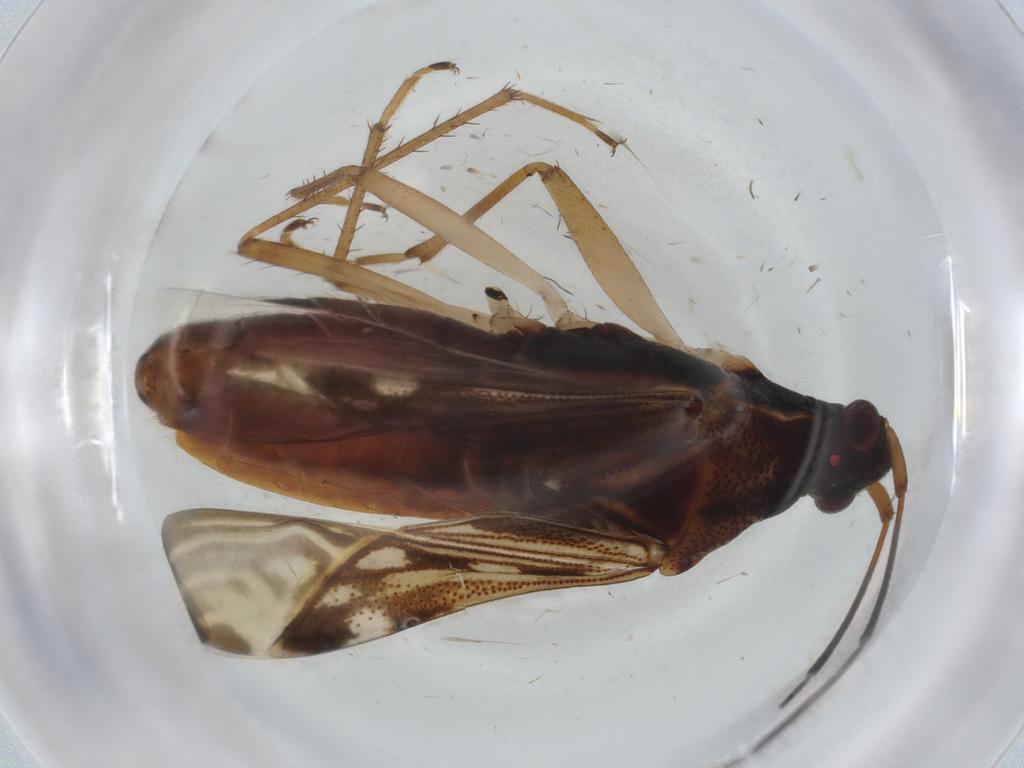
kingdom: Animalia
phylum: Arthropoda
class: Insecta
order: Hemiptera
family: Rhyparochromidae
